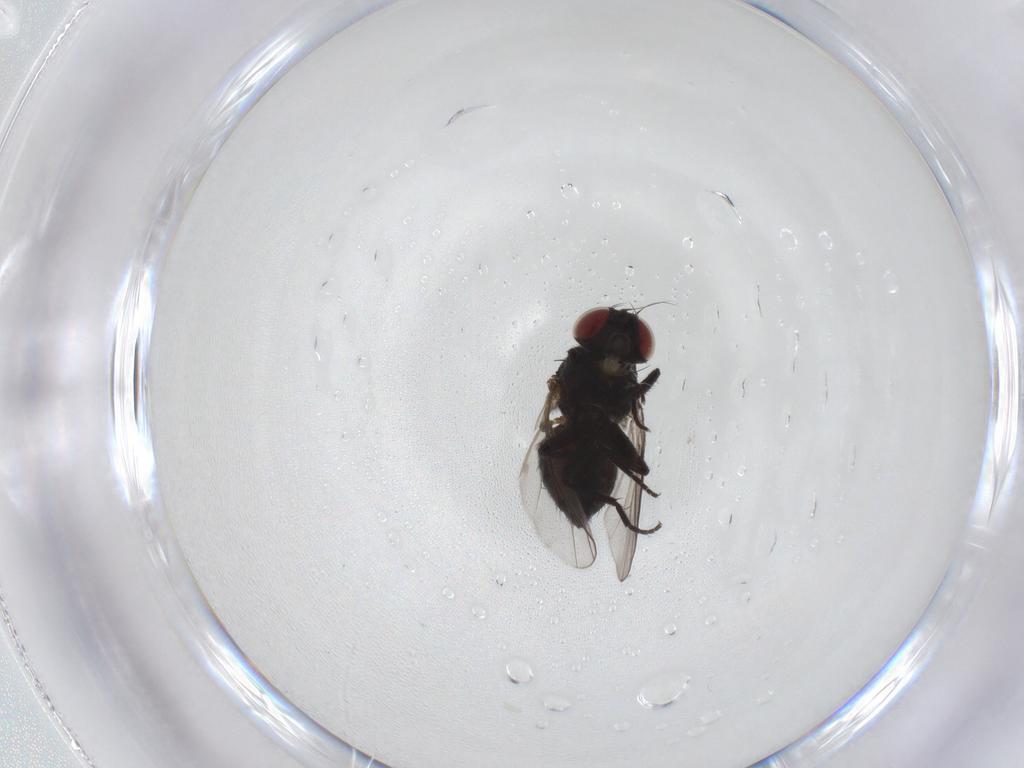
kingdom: Animalia
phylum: Arthropoda
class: Insecta
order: Diptera
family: Agromyzidae
